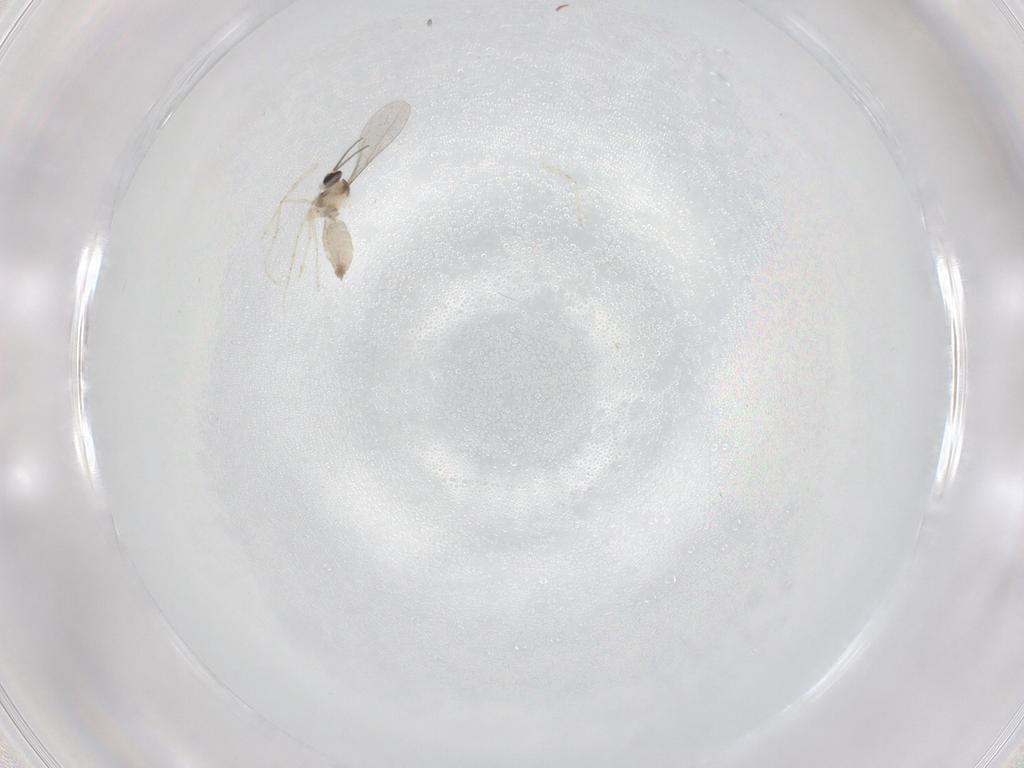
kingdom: Animalia
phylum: Arthropoda
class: Insecta
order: Diptera
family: Cecidomyiidae
